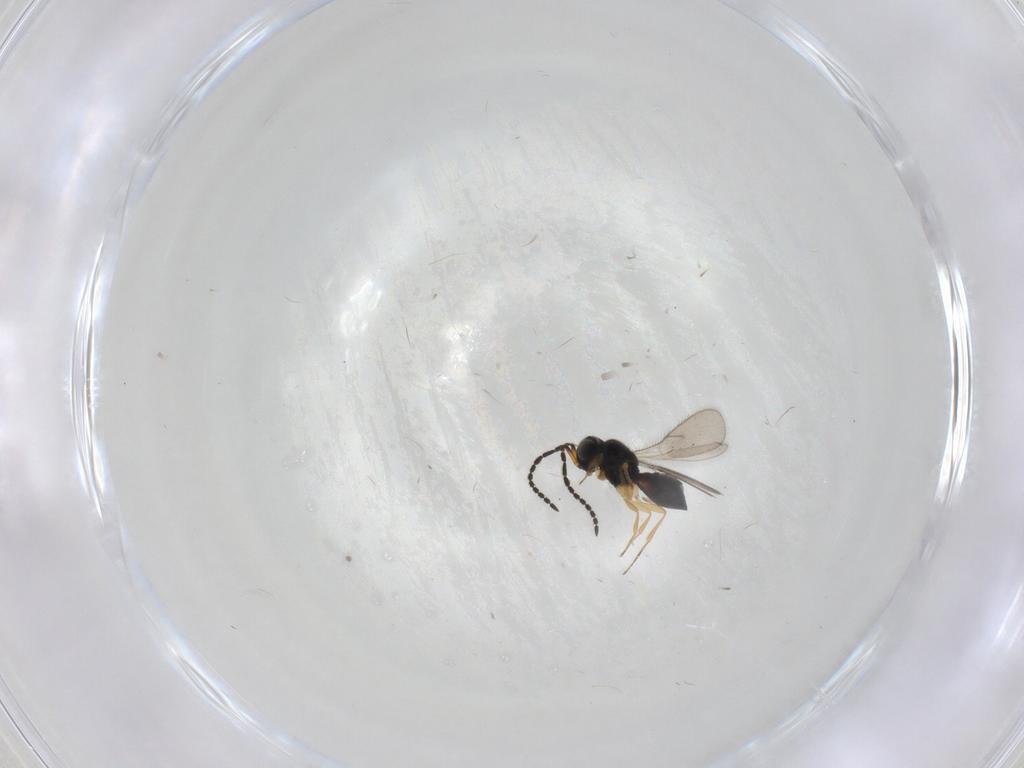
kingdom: Animalia
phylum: Arthropoda
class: Insecta
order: Hymenoptera
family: Scelionidae
